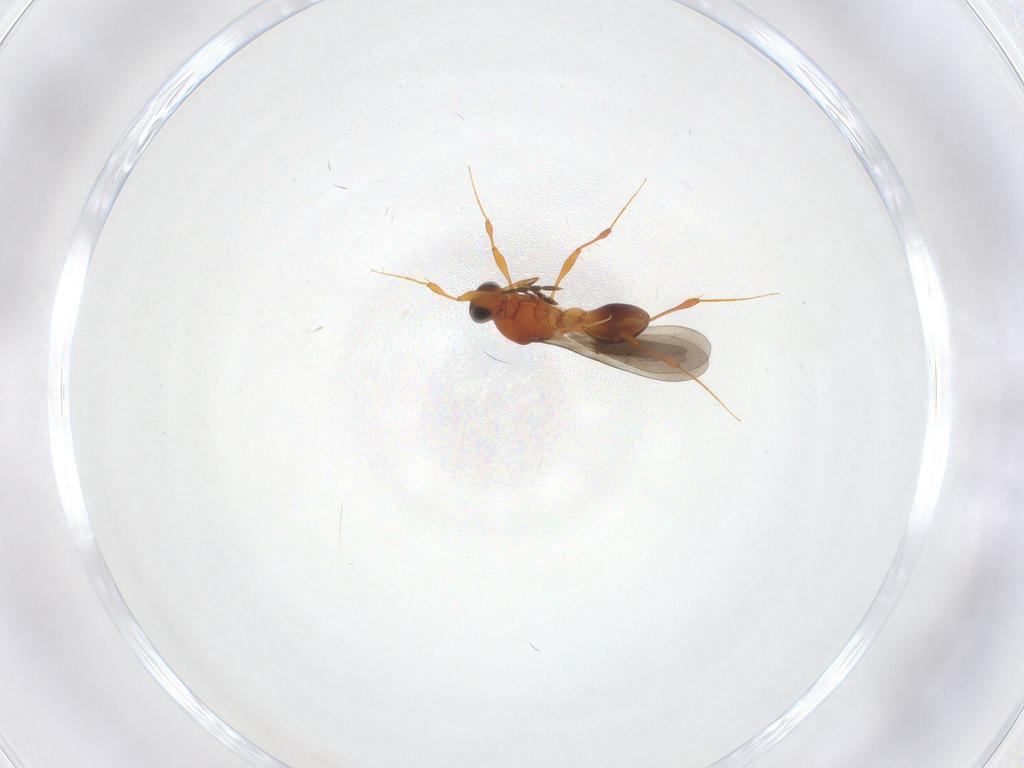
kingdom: Animalia
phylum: Arthropoda
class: Insecta
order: Hymenoptera
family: Platygastridae
